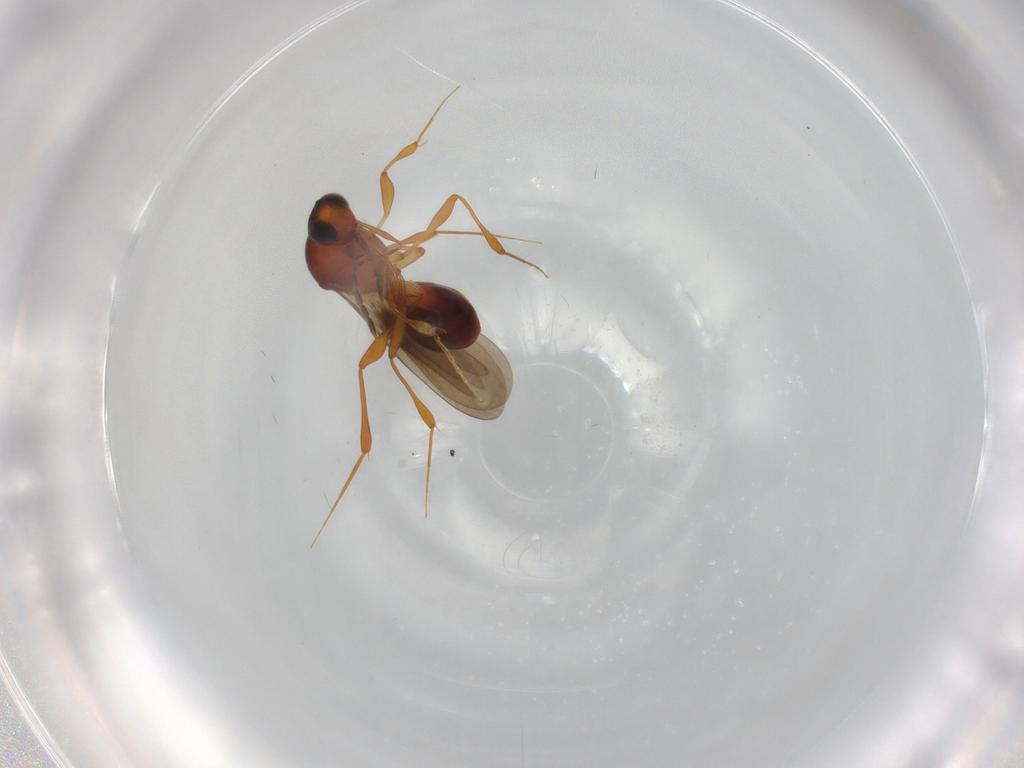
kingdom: Animalia
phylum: Arthropoda
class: Insecta
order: Hymenoptera
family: Platygastridae
